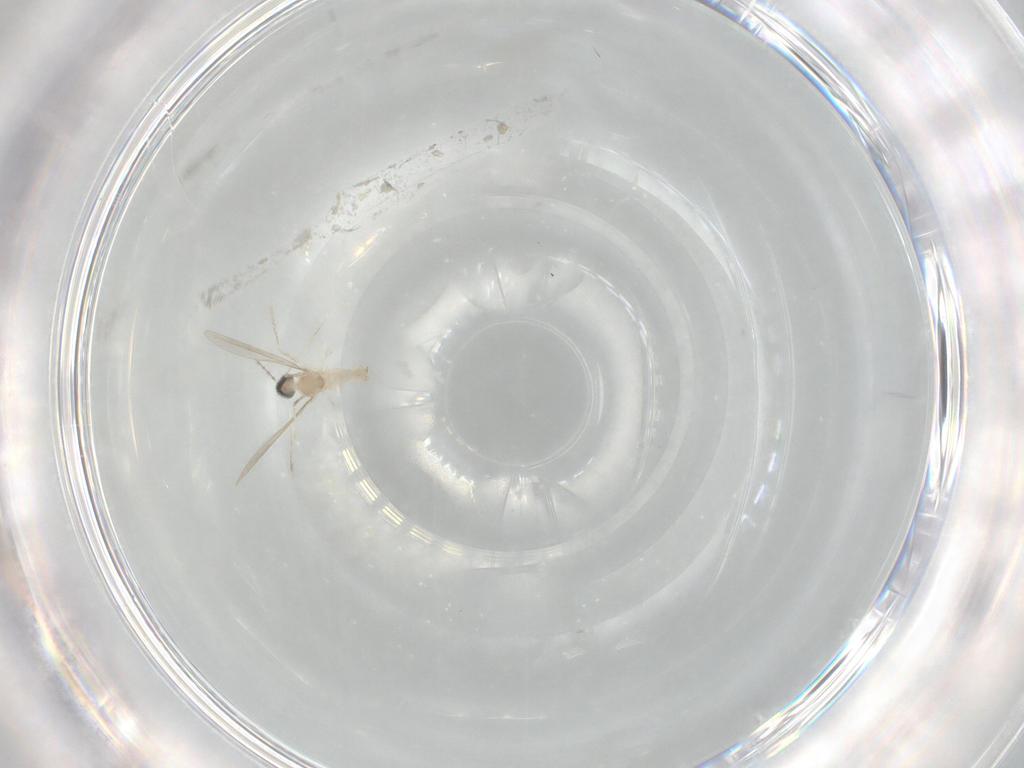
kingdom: Animalia
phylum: Arthropoda
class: Insecta
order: Diptera
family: Cecidomyiidae
